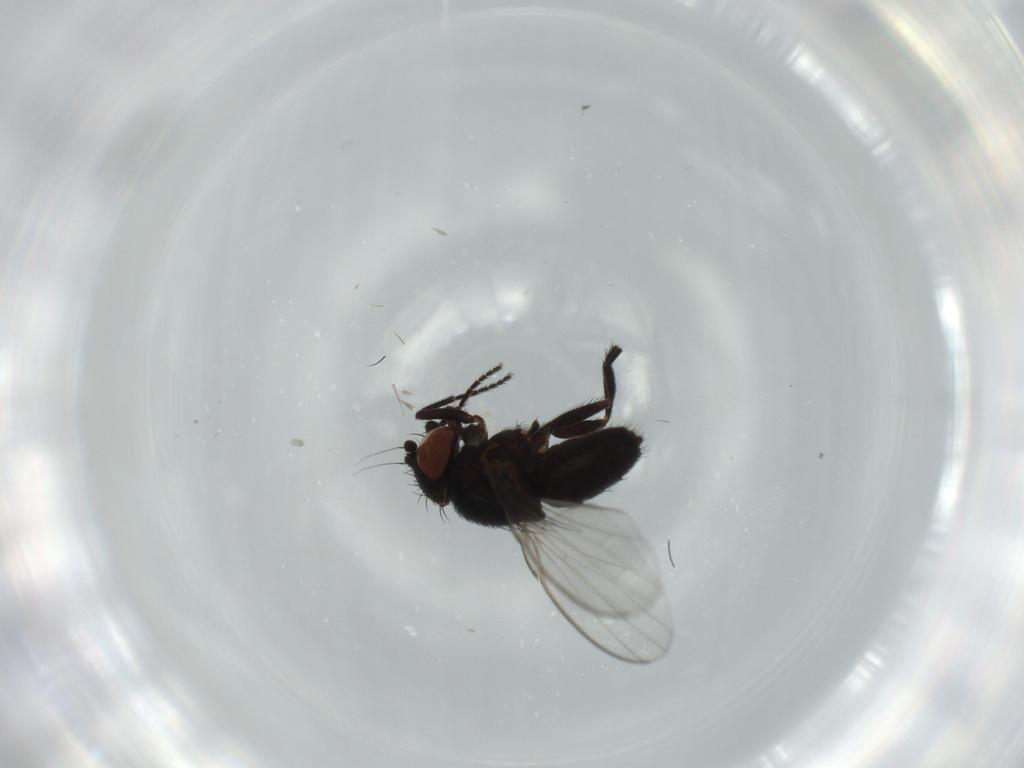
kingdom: Animalia
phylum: Arthropoda
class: Insecta
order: Diptera
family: Milichiidae
